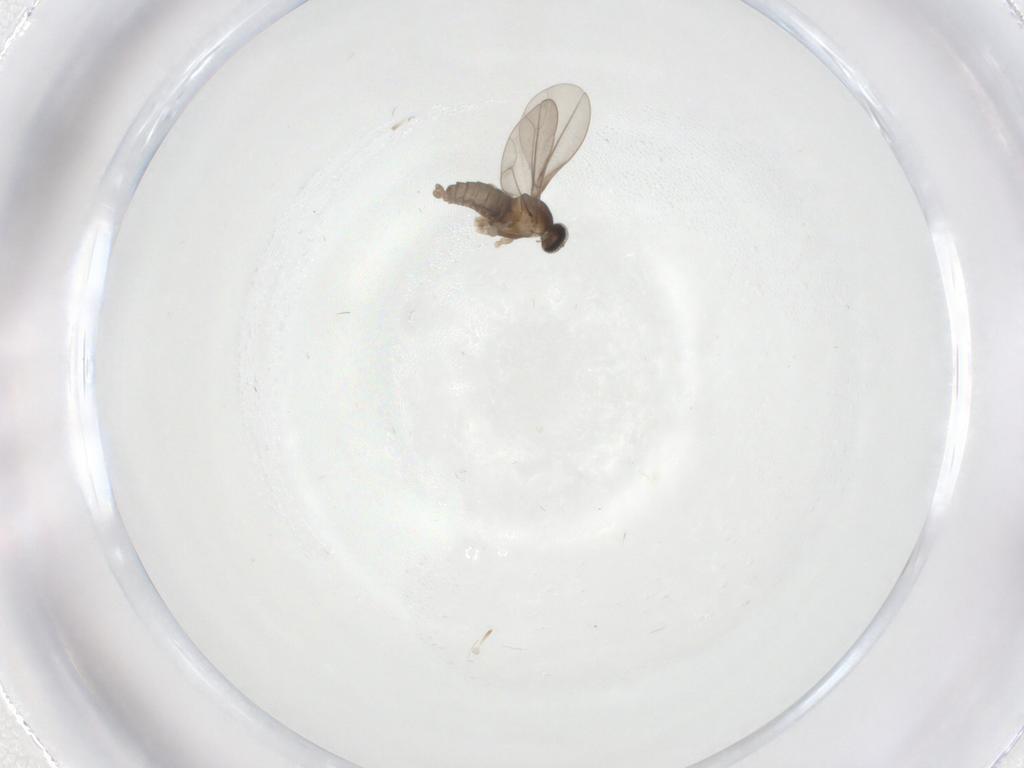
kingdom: Animalia
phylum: Arthropoda
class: Insecta
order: Diptera
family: Cecidomyiidae
